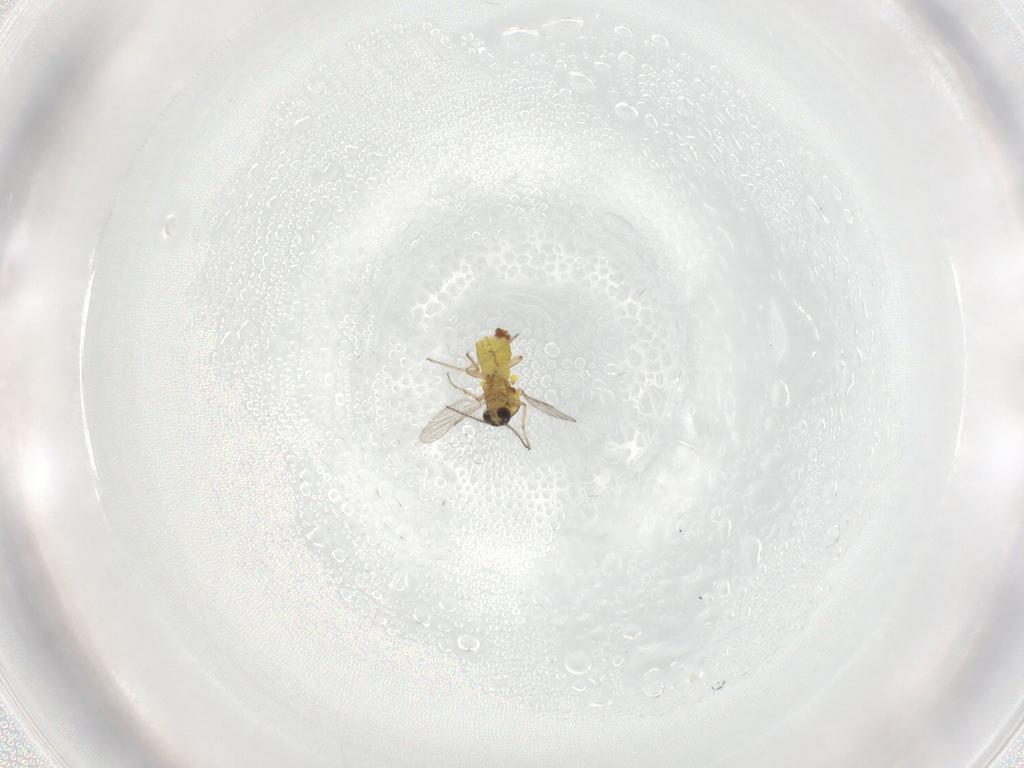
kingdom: Animalia
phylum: Arthropoda
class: Insecta
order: Diptera
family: Ceratopogonidae
